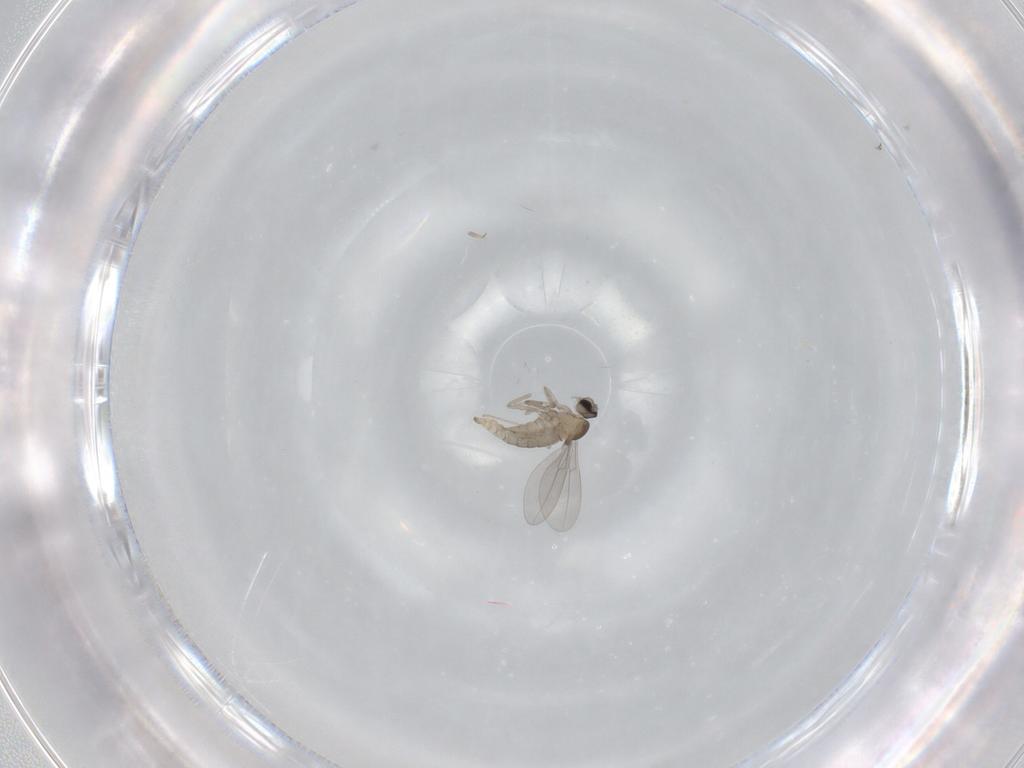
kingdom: Animalia
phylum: Arthropoda
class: Insecta
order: Diptera
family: Cecidomyiidae
